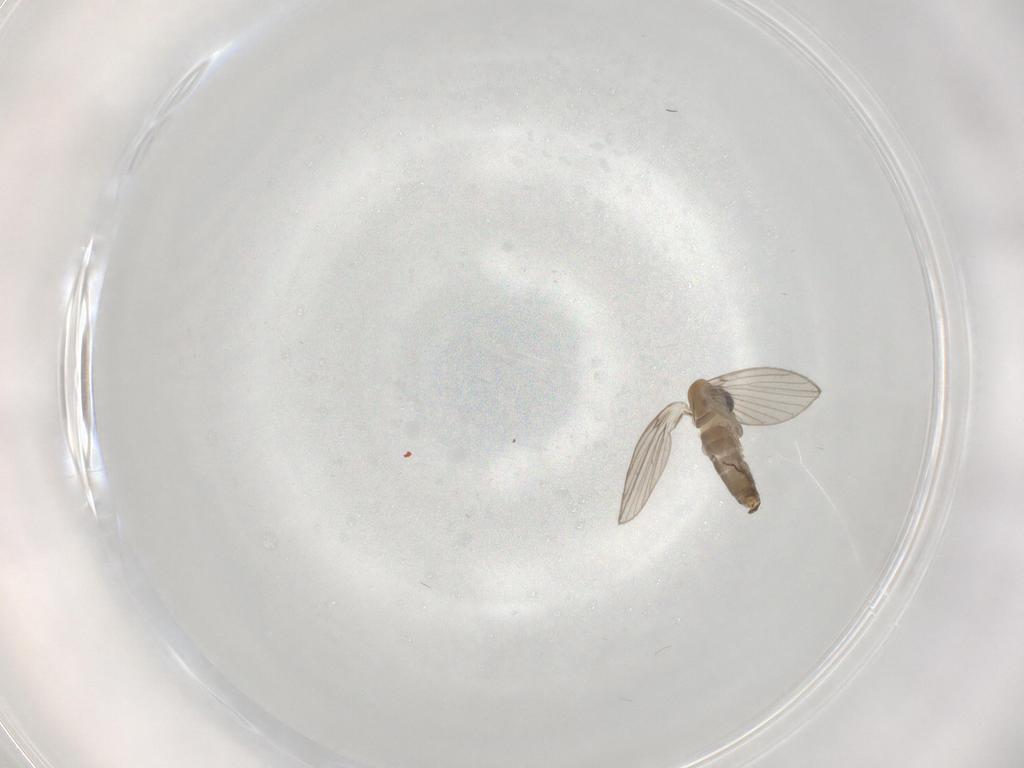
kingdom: Animalia
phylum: Arthropoda
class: Insecta
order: Diptera
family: Psychodidae
